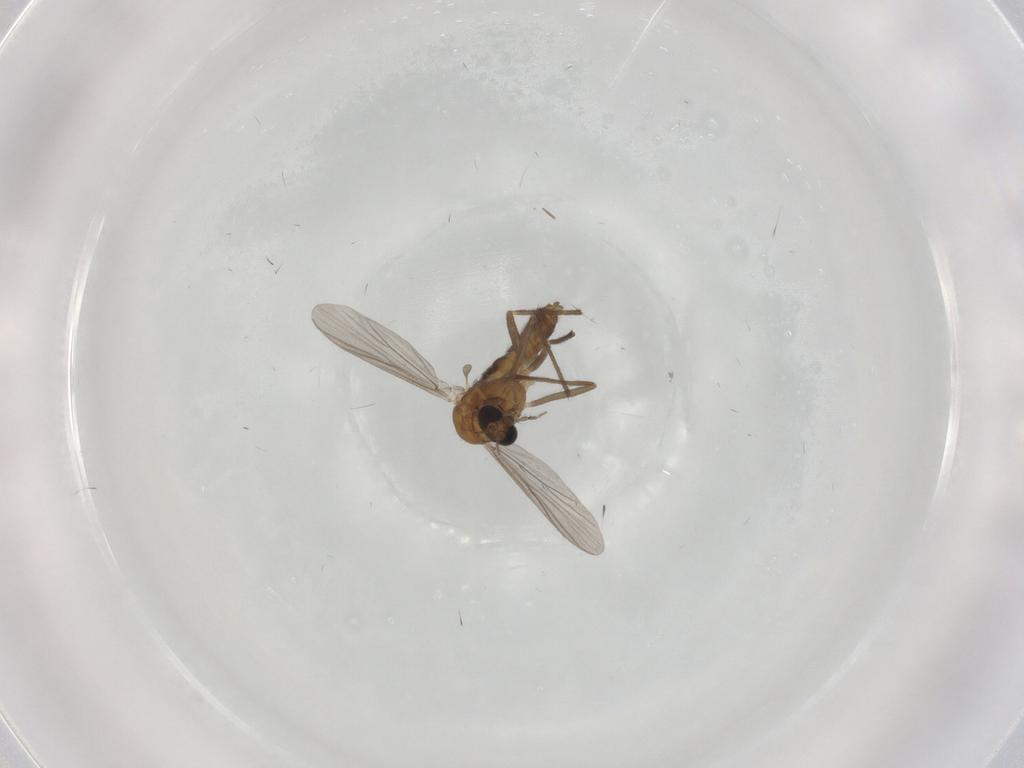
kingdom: Animalia
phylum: Arthropoda
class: Insecta
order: Diptera
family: Chironomidae
